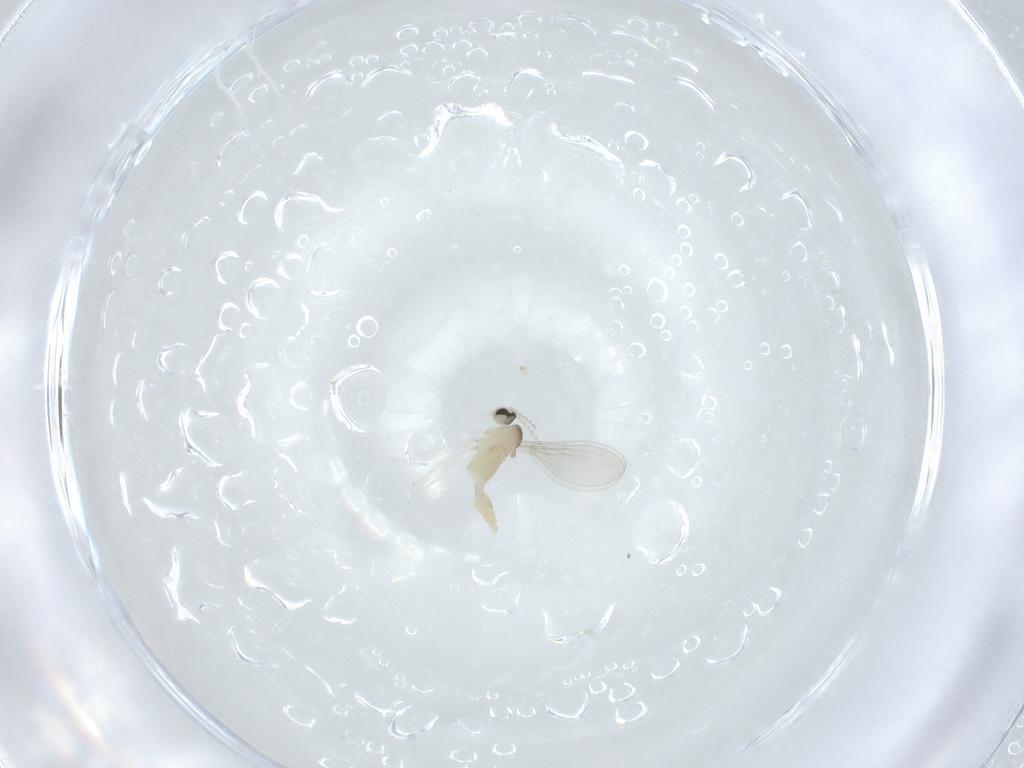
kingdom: Animalia
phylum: Arthropoda
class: Insecta
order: Diptera
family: Cecidomyiidae
